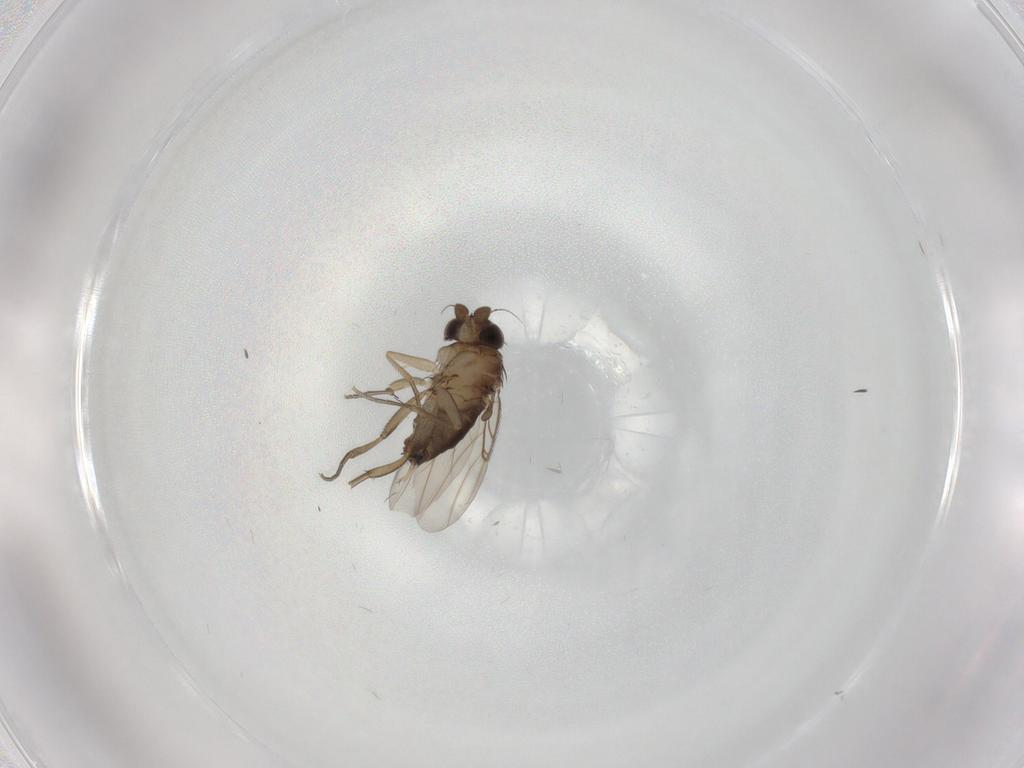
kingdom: Animalia
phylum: Arthropoda
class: Insecta
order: Diptera
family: Phoridae
